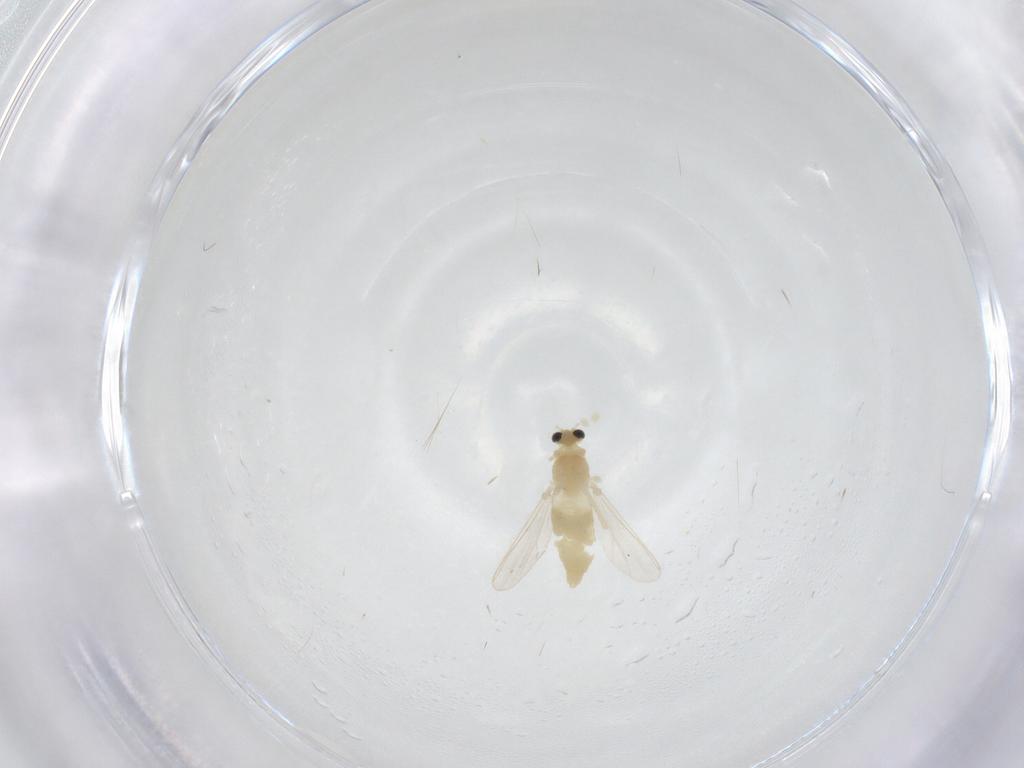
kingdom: Animalia
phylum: Arthropoda
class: Insecta
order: Diptera
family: Chironomidae
